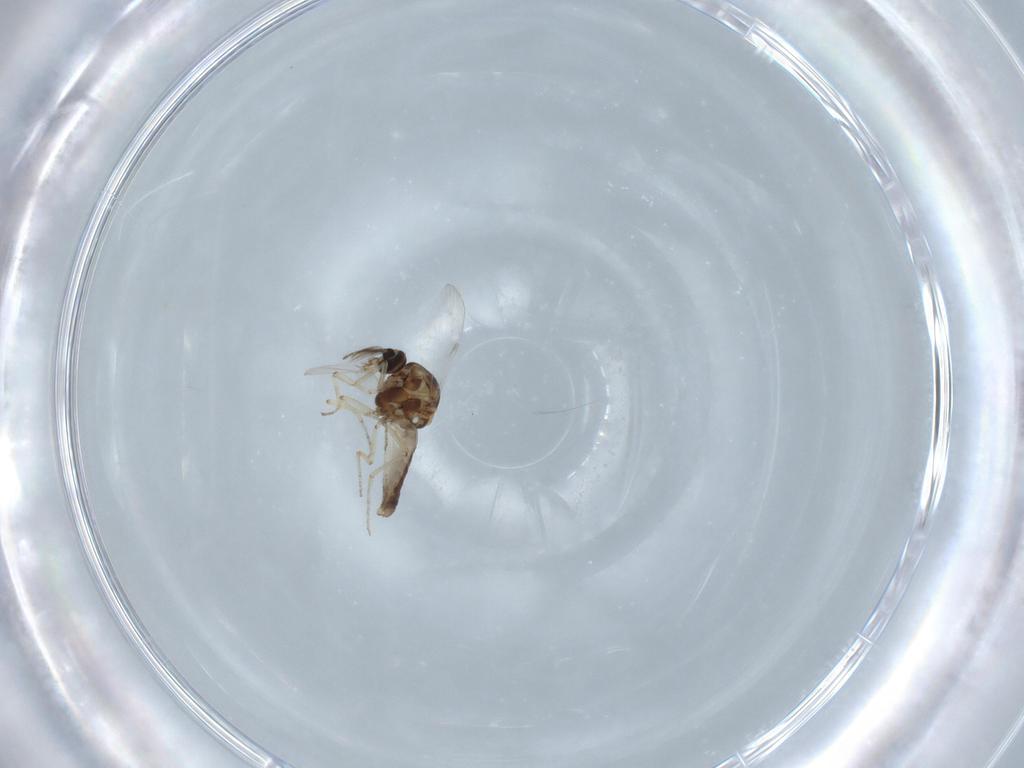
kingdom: Animalia
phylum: Arthropoda
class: Insecta
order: Diptera
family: Ceratopogonidae
